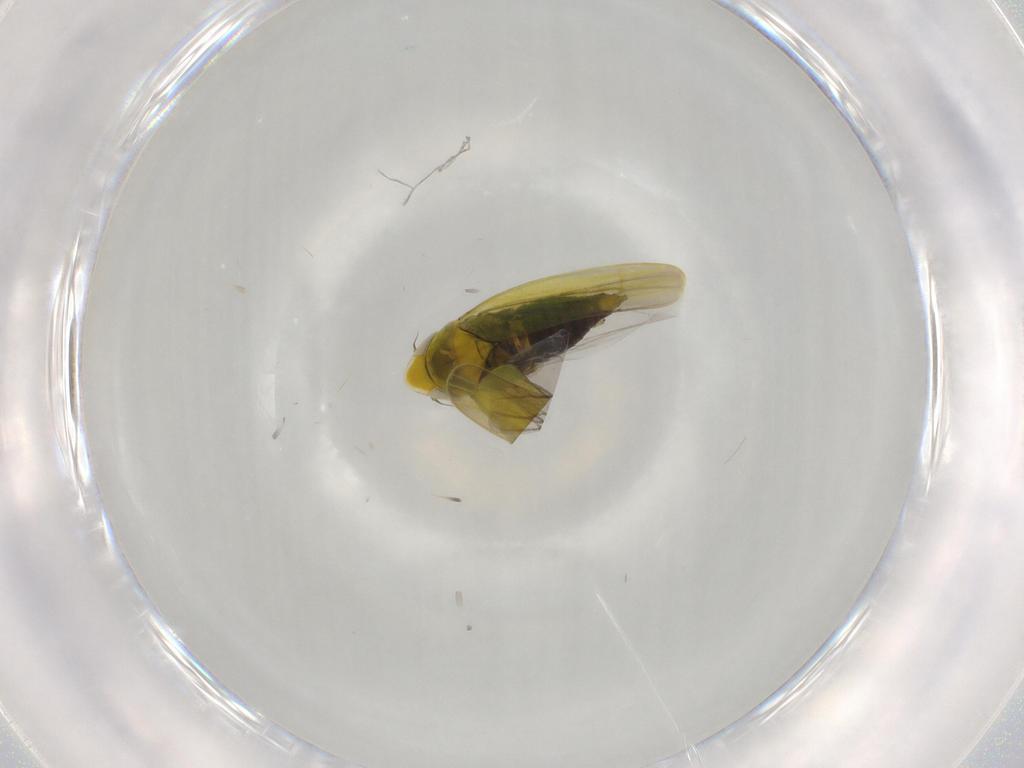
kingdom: Animalia
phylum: Arthropoda
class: Insecta
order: Hemiptera
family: Cicadellidae
